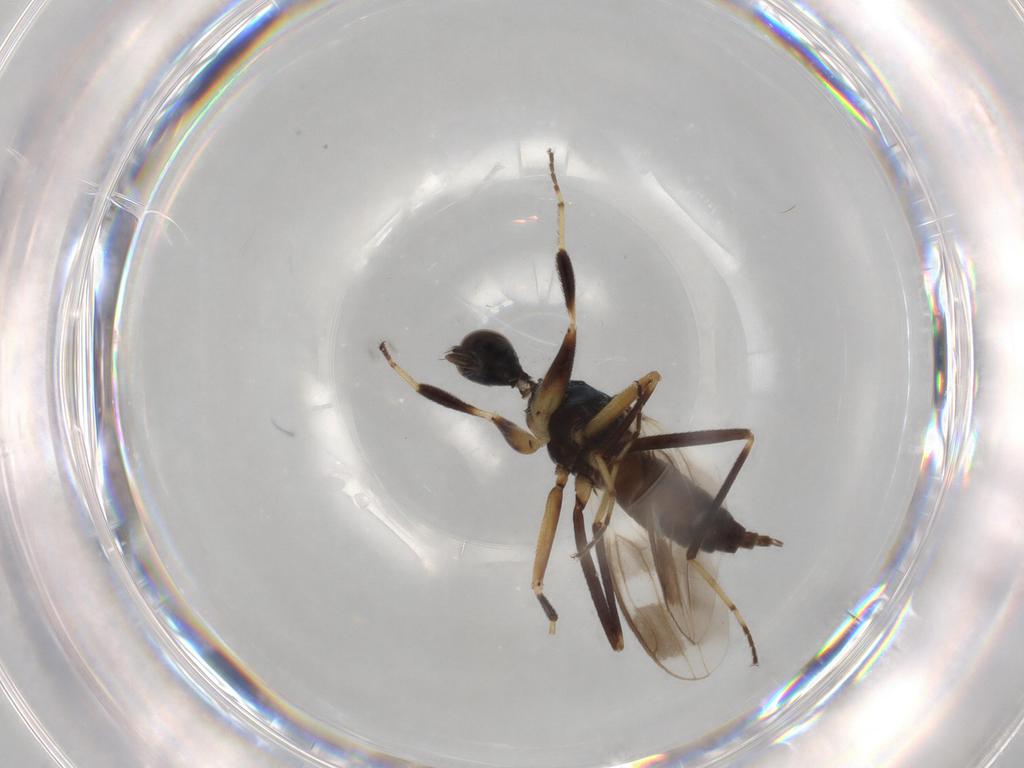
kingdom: Animalia
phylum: Arthropoda
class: Insecta
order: Diptera
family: Hybotidae
